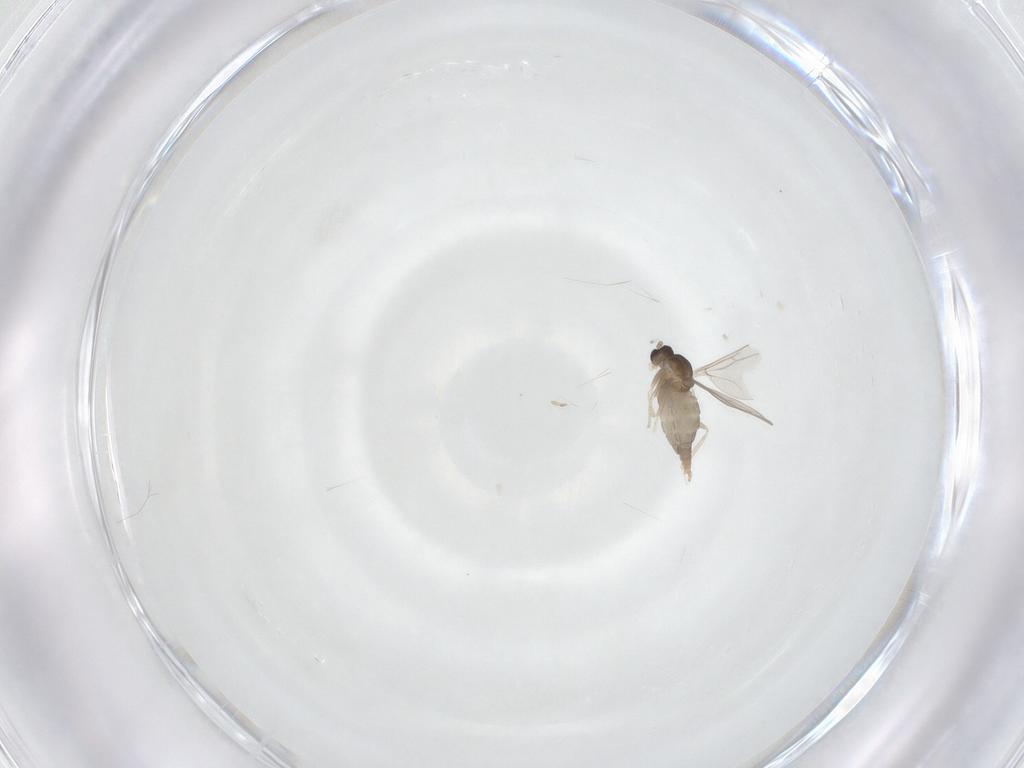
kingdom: Animalia
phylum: Arthropoda
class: Insecta
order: Diptera
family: Cecidomyiidae
